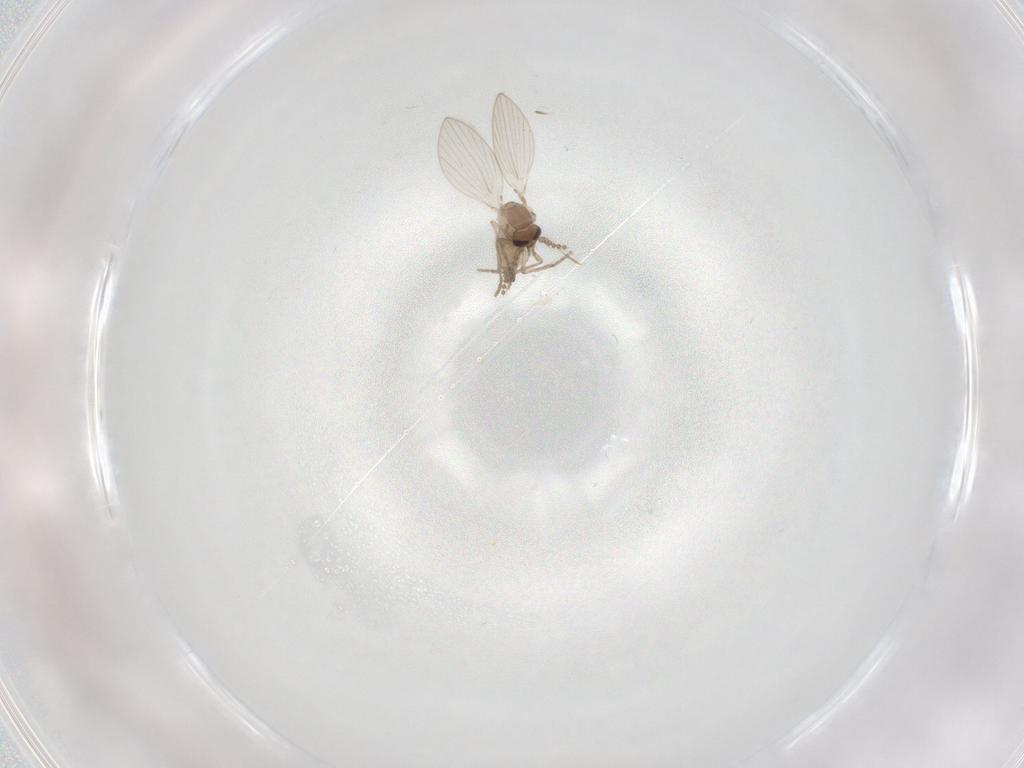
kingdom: Animalia
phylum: Arthropoda
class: Insecta
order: Diptera
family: Psychodidae
